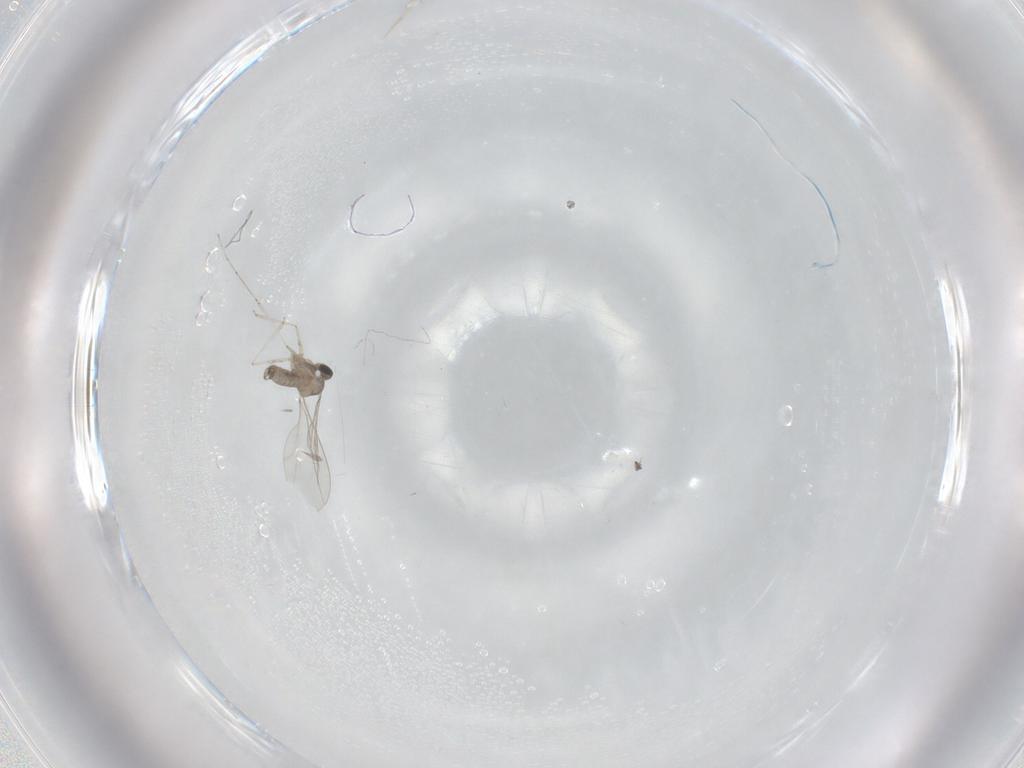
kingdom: Animalia
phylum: Arthropoda
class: Insecta
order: Diptera
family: Cecidomyiidae
